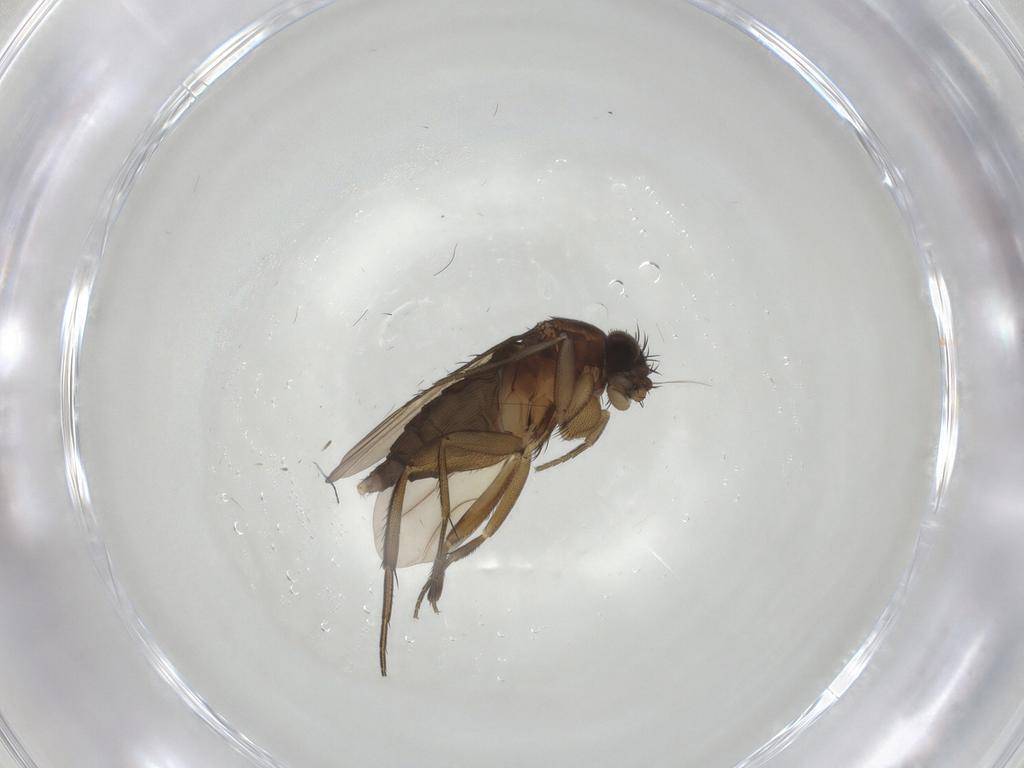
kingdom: Animalia
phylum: Arthropoda
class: Insecta
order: Diptera
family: Phoridae
